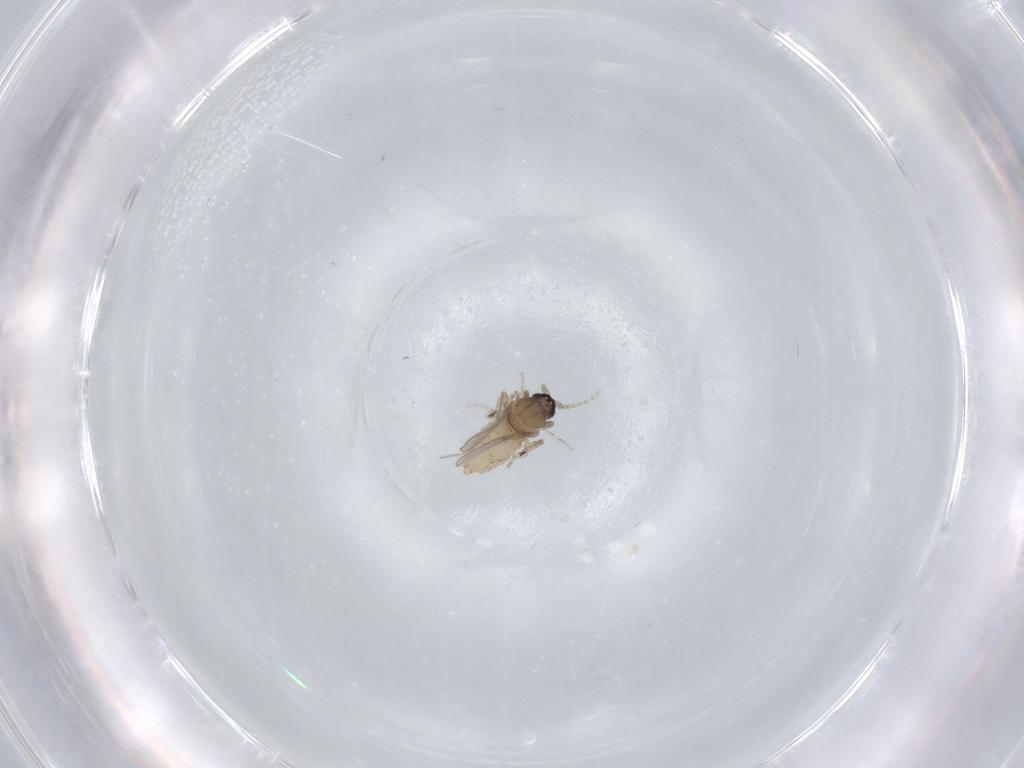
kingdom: Animalia
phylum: Arthropoda
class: Insecta
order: Diptera
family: Cecidomyiidae
